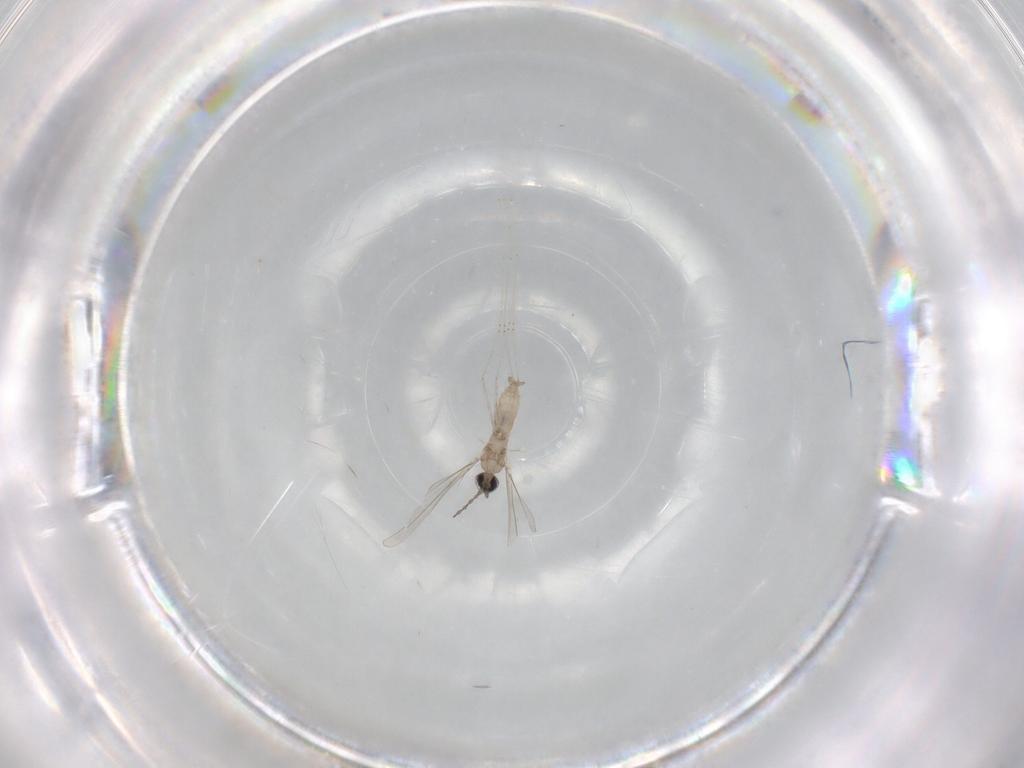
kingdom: Animalia
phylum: Arthropoda
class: Insecta
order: Diptera
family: Cecidomyiidae
